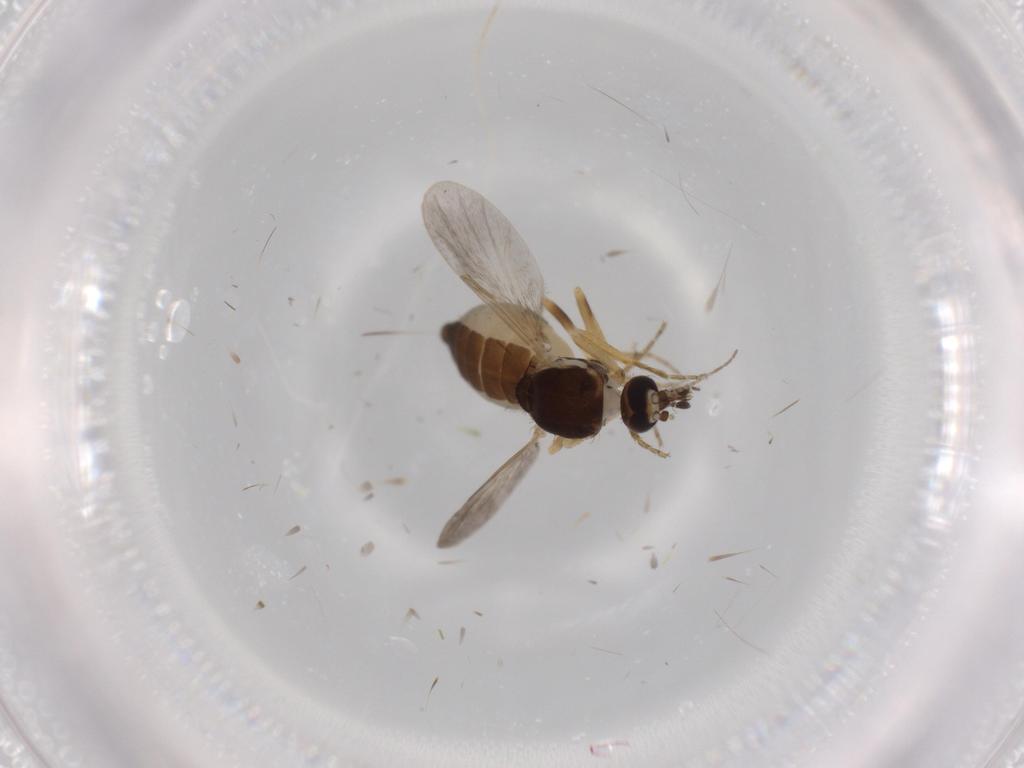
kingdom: Animalia
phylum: Arthropoda
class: Insecta
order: Diptera
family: Cecidomyiidae
